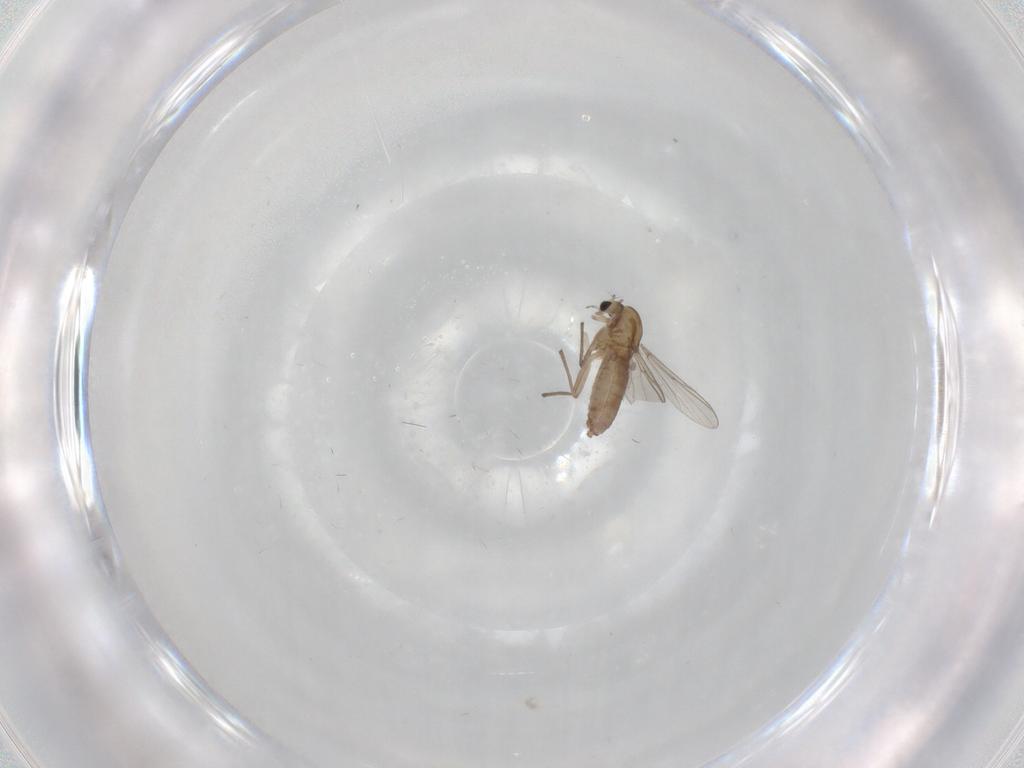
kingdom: Animalia
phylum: Arthropoda
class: Insecta
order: Diptera
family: Chironomidae
